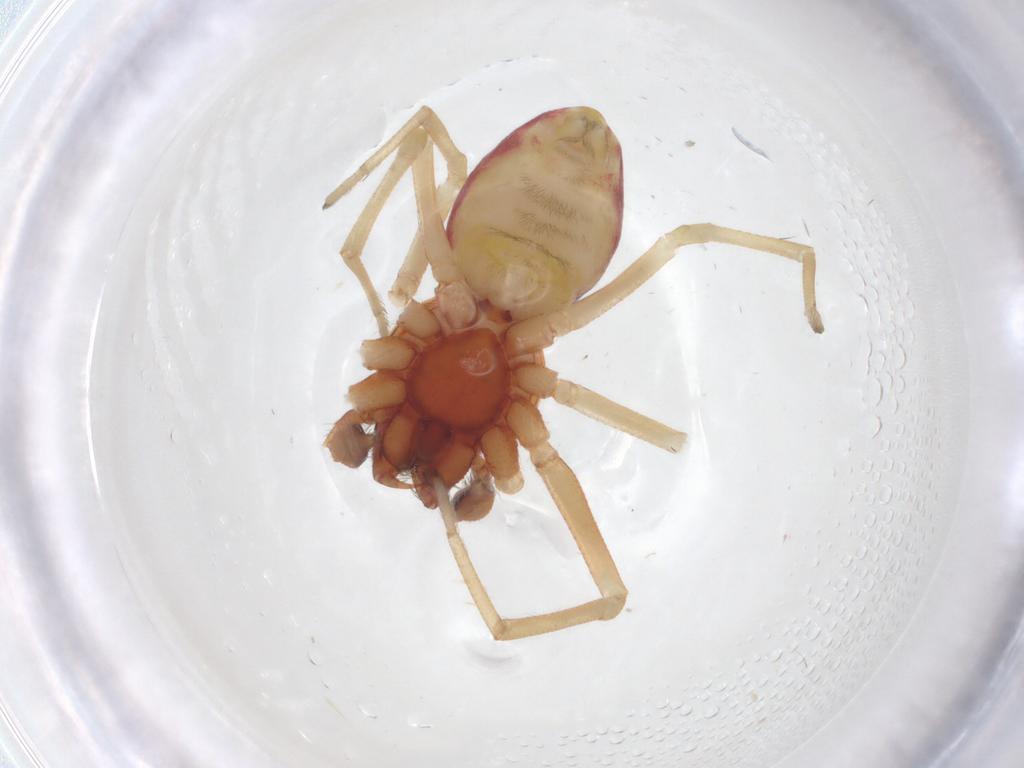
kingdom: Animalia
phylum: Arthropoda
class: Arachnida
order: Araneae
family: Dictynidae
